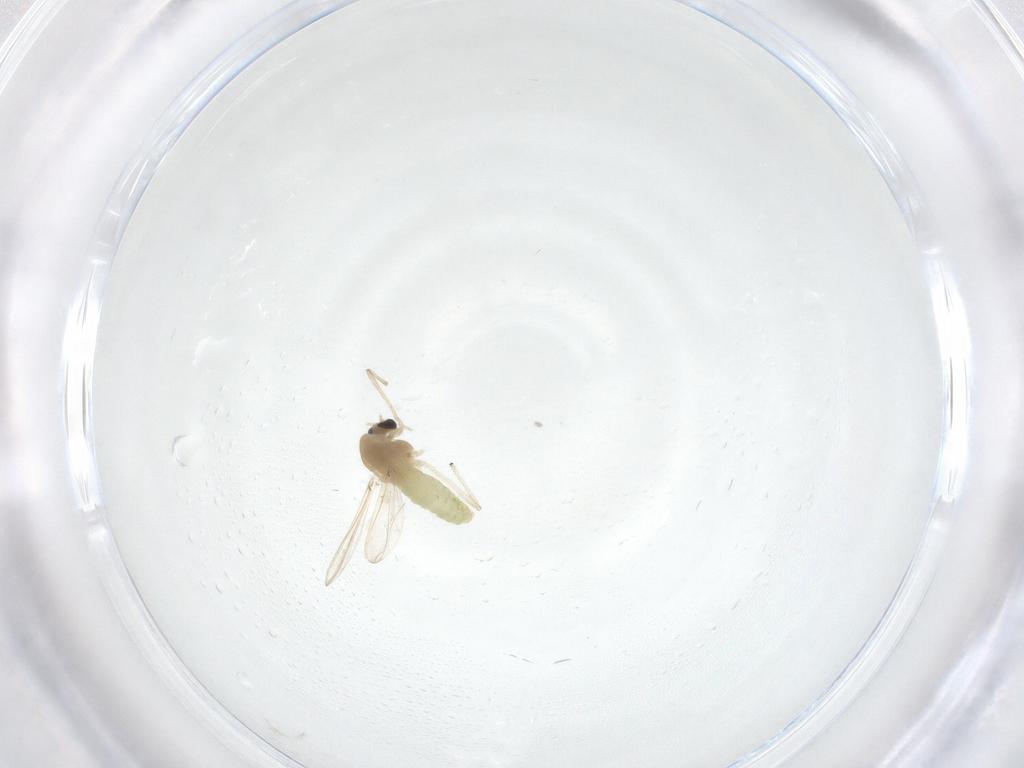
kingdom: Animalia
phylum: Arthropoda
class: Insecta
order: Diptera
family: Chironomidae
